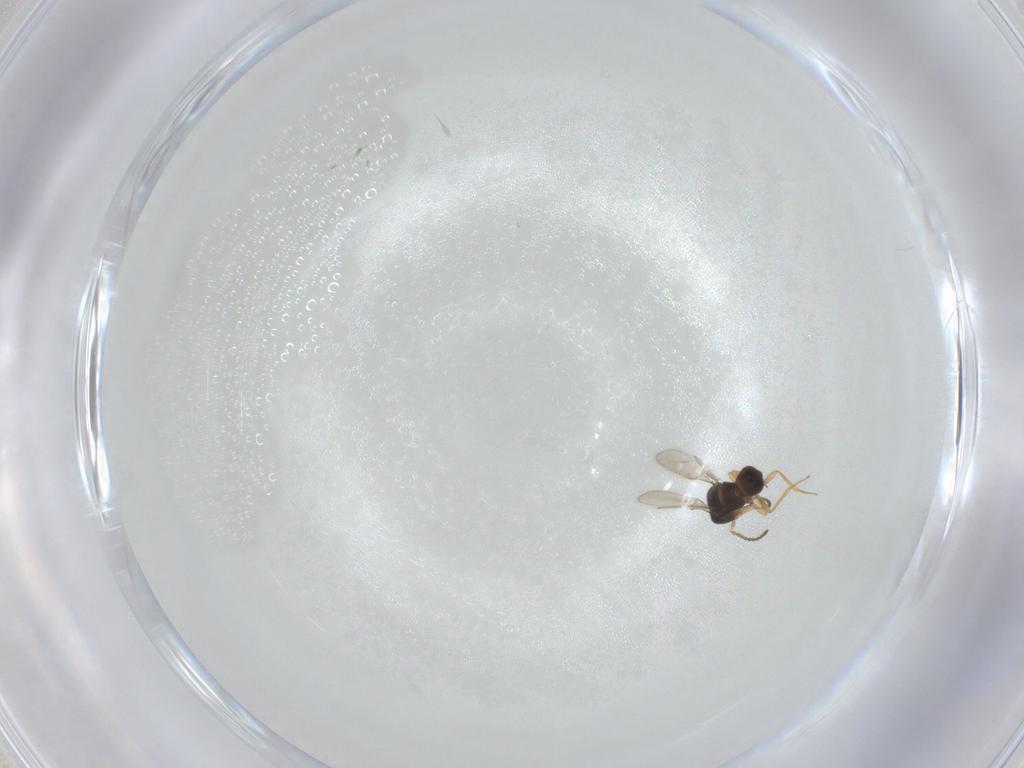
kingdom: Animalia
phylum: Arthropoda
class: Insecta
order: Hymenoptera
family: Scelionidae
